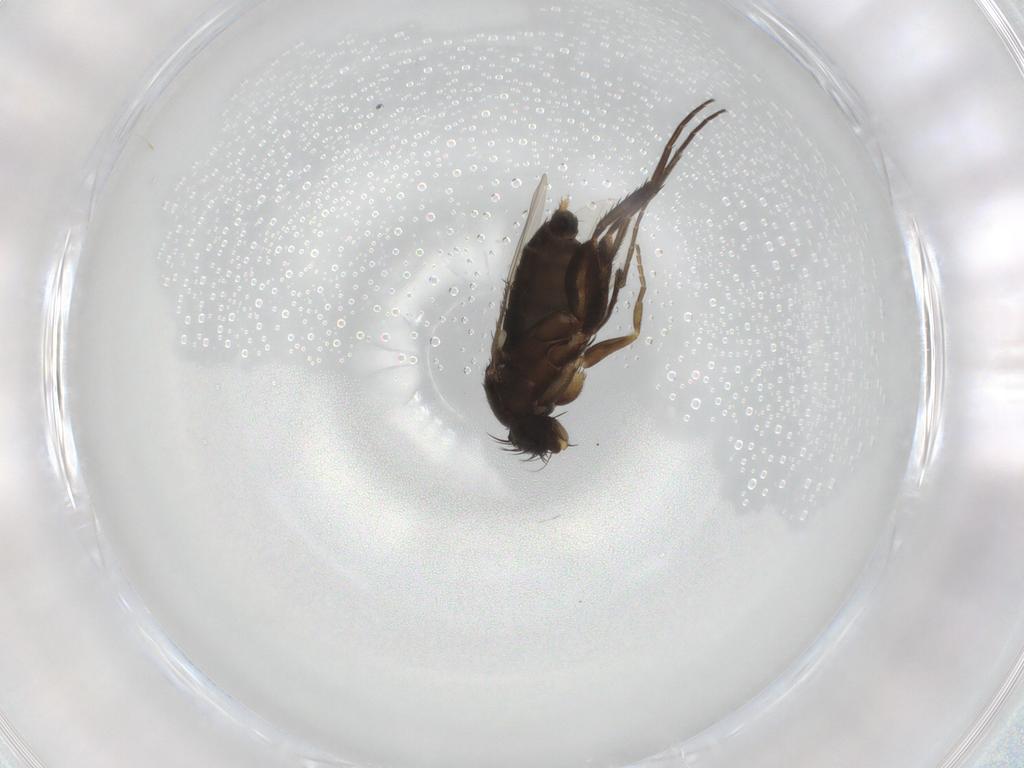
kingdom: Animalia
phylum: Arthropoda
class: Insecta
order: Diptera
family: Phoridae
